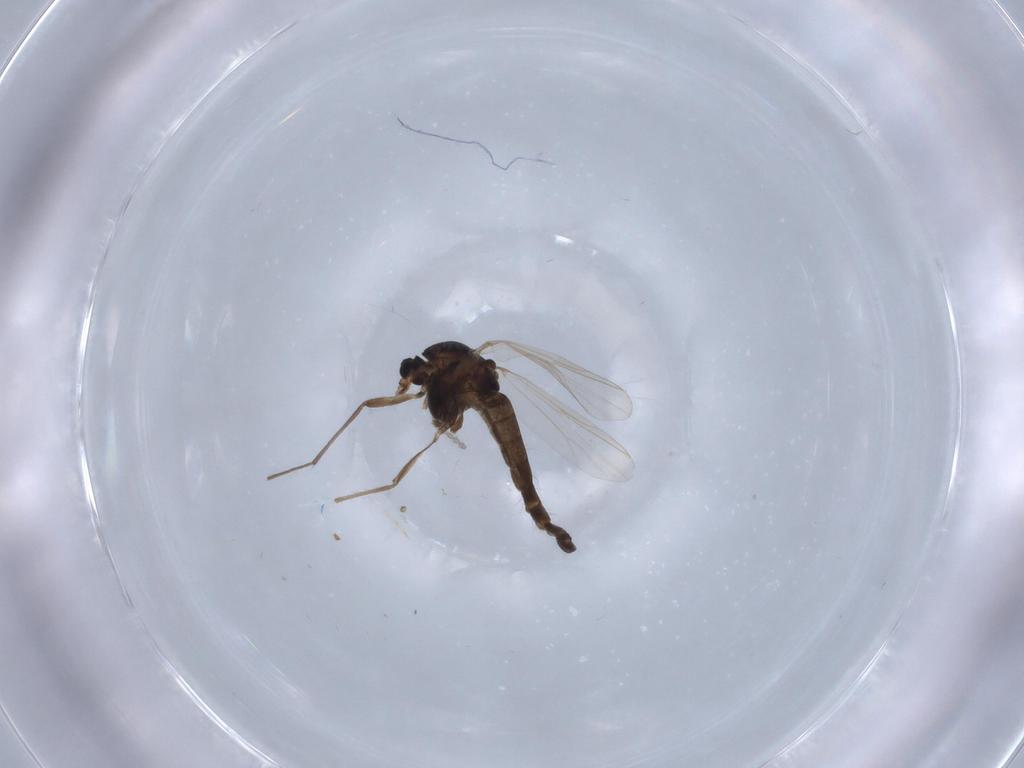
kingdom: Animalia
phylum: Arthropoda
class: Insecta
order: Diptera
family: Chironomidae
